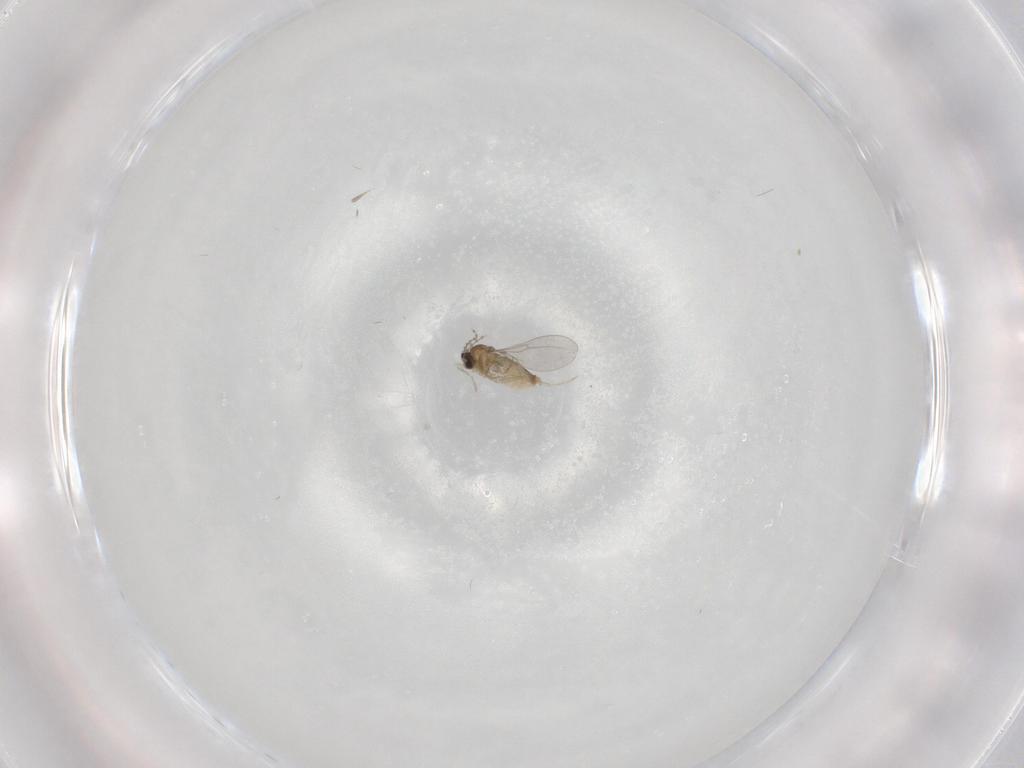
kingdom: Animalia
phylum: Arthropoda
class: Insecta
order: Diptera
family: Cecidomyiidae
